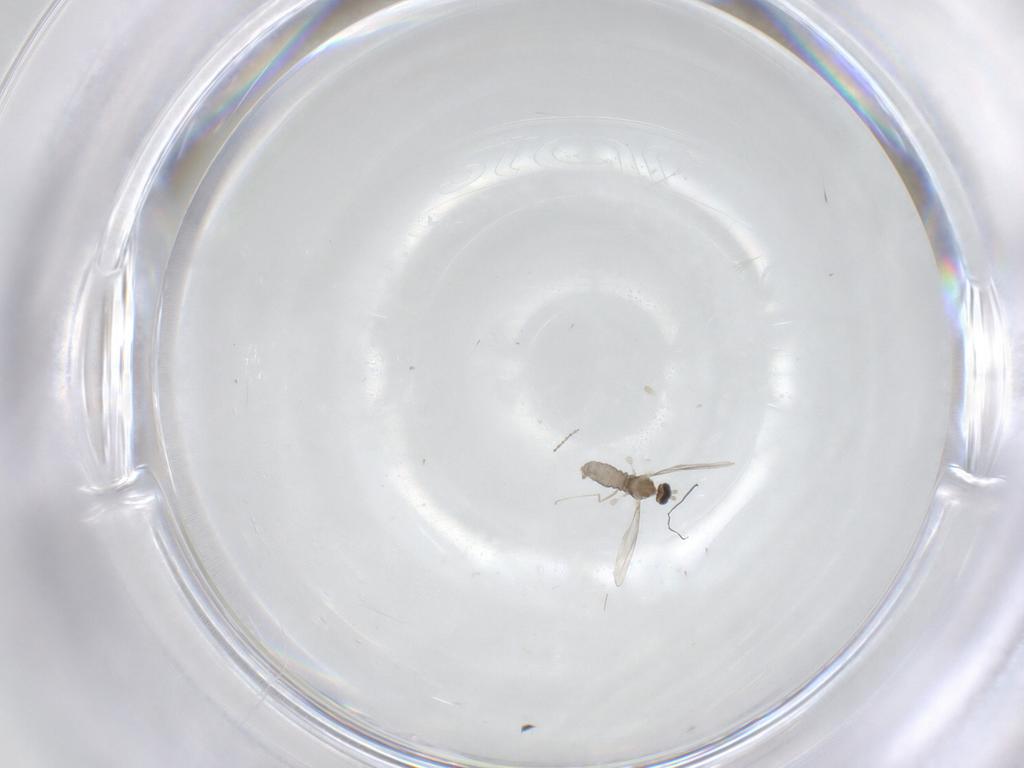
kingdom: Animalia
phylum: Arthropoda
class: Insecta
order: Diptera
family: Cecidomyiidae
